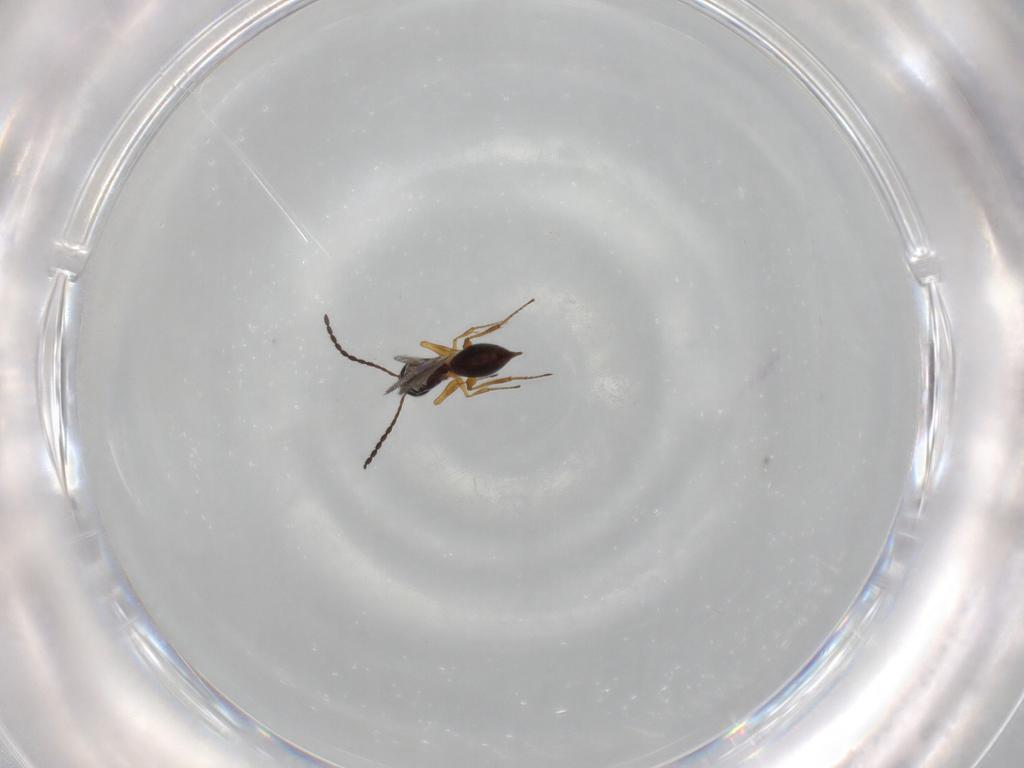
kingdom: Animalia
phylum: Arthropoda
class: Insecta
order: Hymenoptera
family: Figitidae
